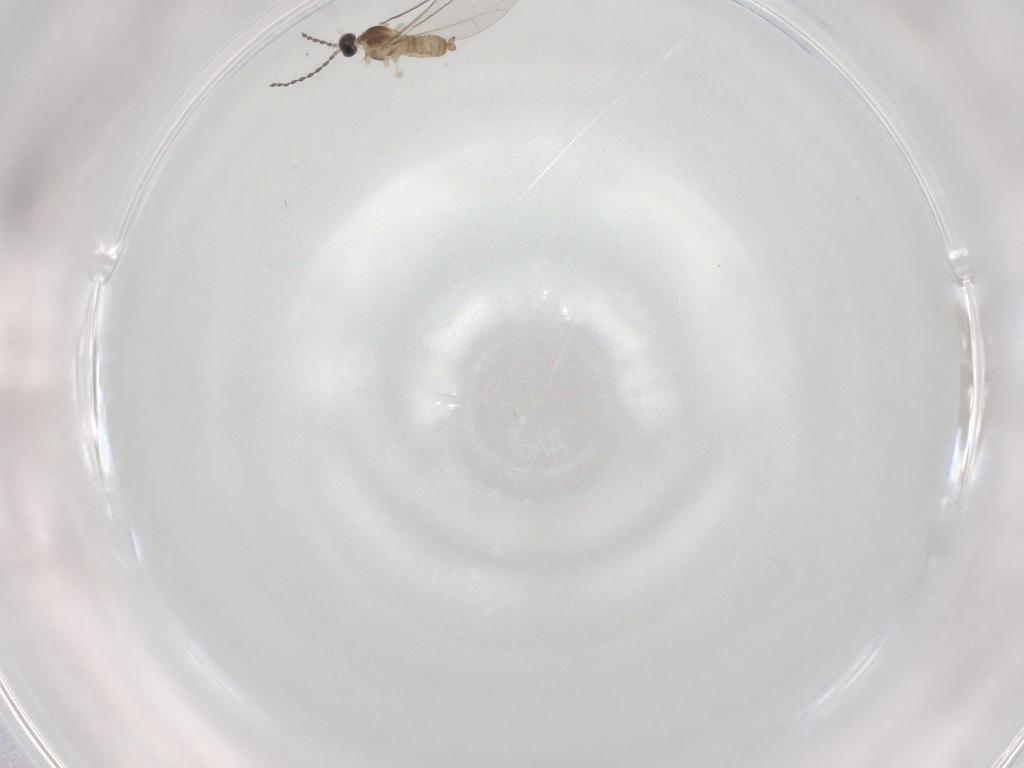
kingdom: Animalia
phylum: Arthropoda
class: Insecta
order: Diptera
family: Cecidomyiidae
